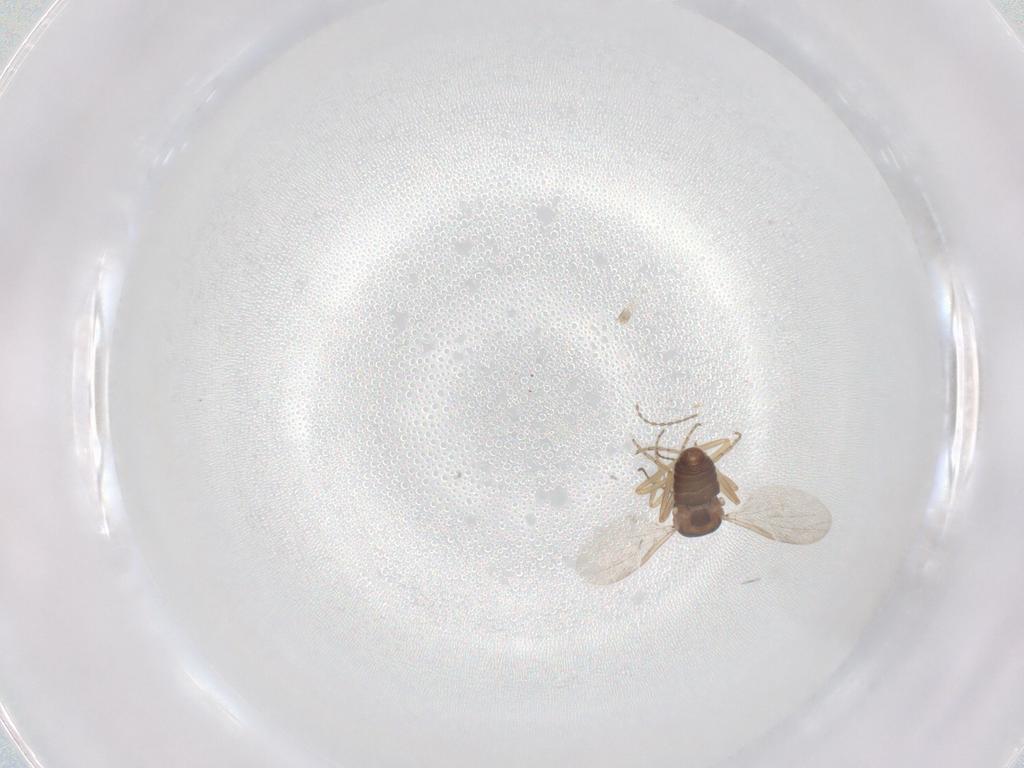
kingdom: Animalia
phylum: Arthropoda
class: Insecta
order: Diptera
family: Ceratopogonidae
